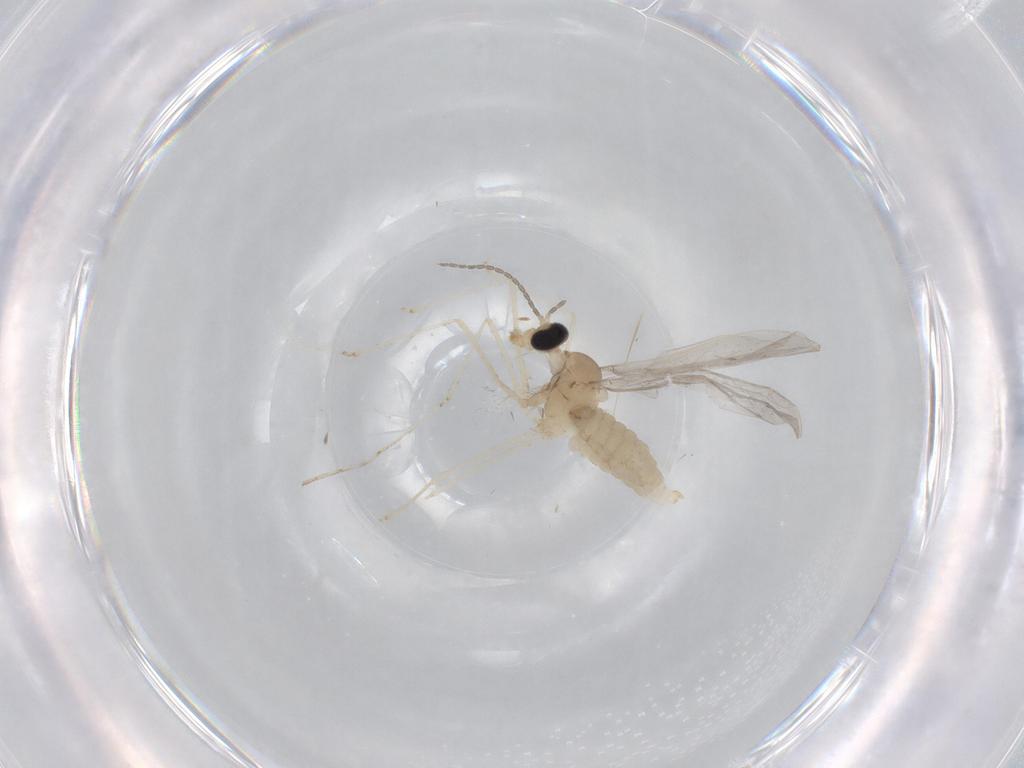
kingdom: Animalia
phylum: Arthropoda
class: Insecta
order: Diptera
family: Cecidomyiidae
